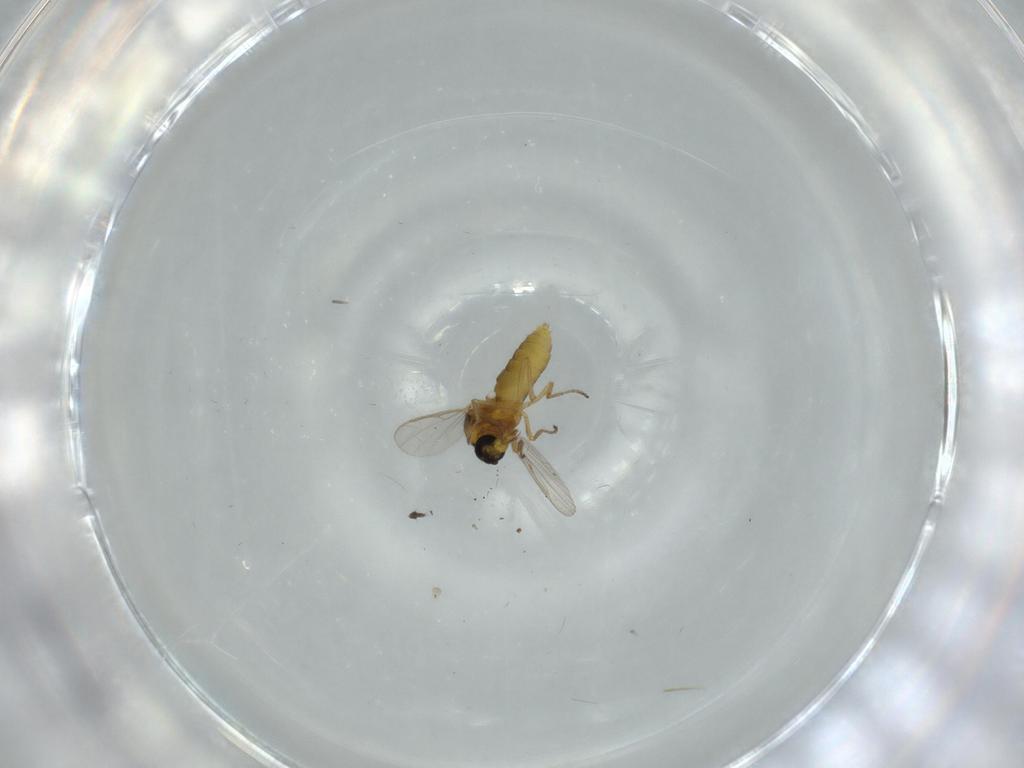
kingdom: Animalia
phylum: Arthropoda
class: Insecta
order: Diptera
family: Ceratopogonidae
